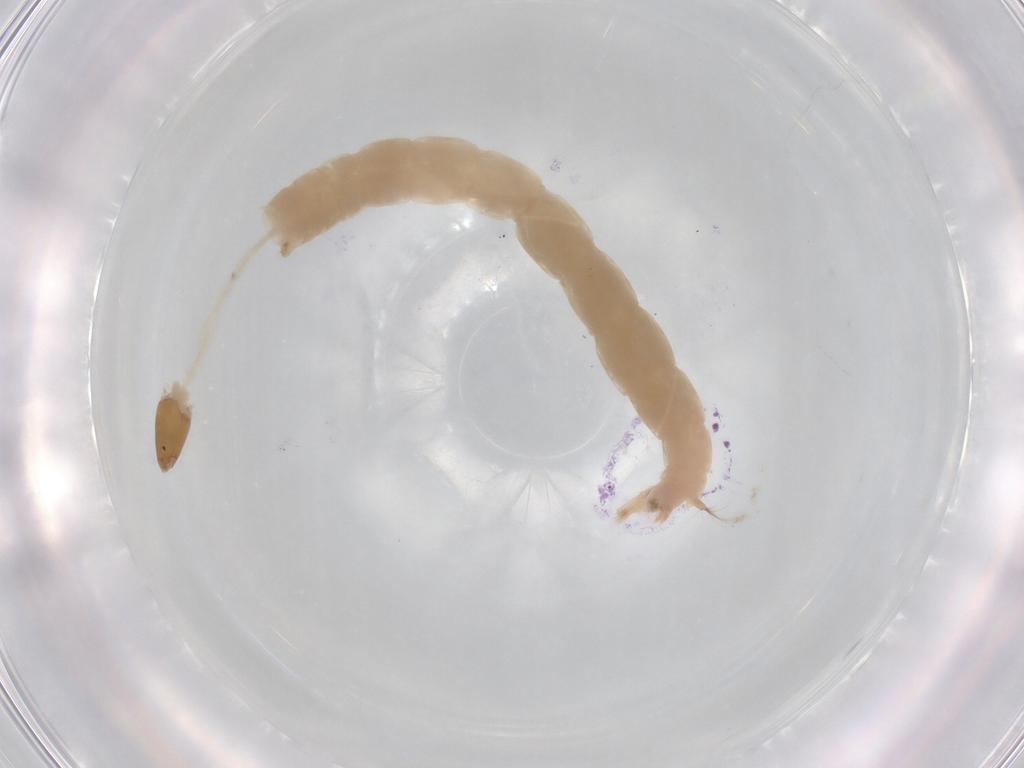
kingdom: Animalia
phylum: Arthropoda
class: Insecta
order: Diptera
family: Chironomidae
